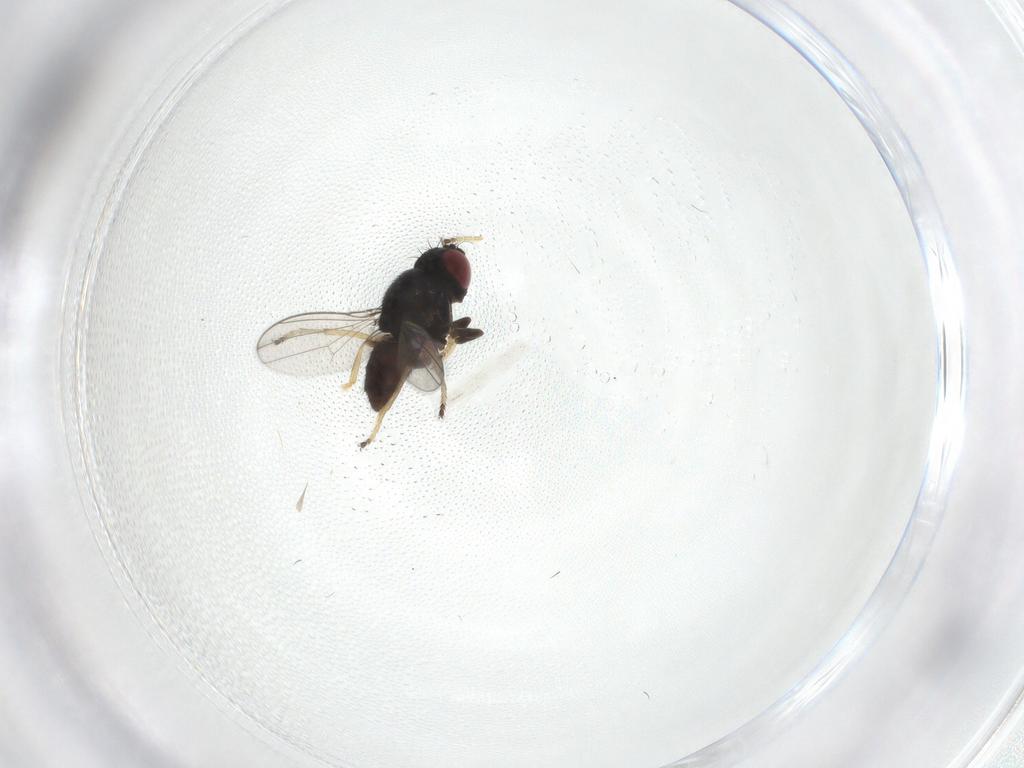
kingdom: Animalia
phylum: Arthropoda
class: Insecta
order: Diptera
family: Ephydridae
